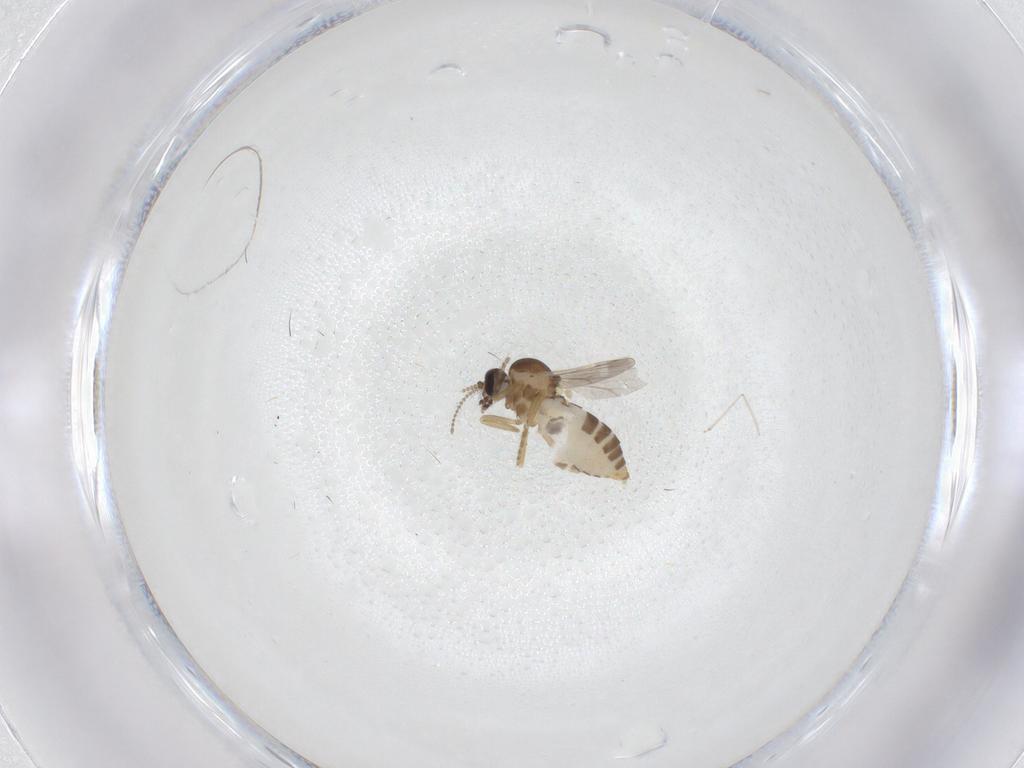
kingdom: Animalia
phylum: Arthropoda
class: Insecta
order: Diptera
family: Ceratopogonidae
